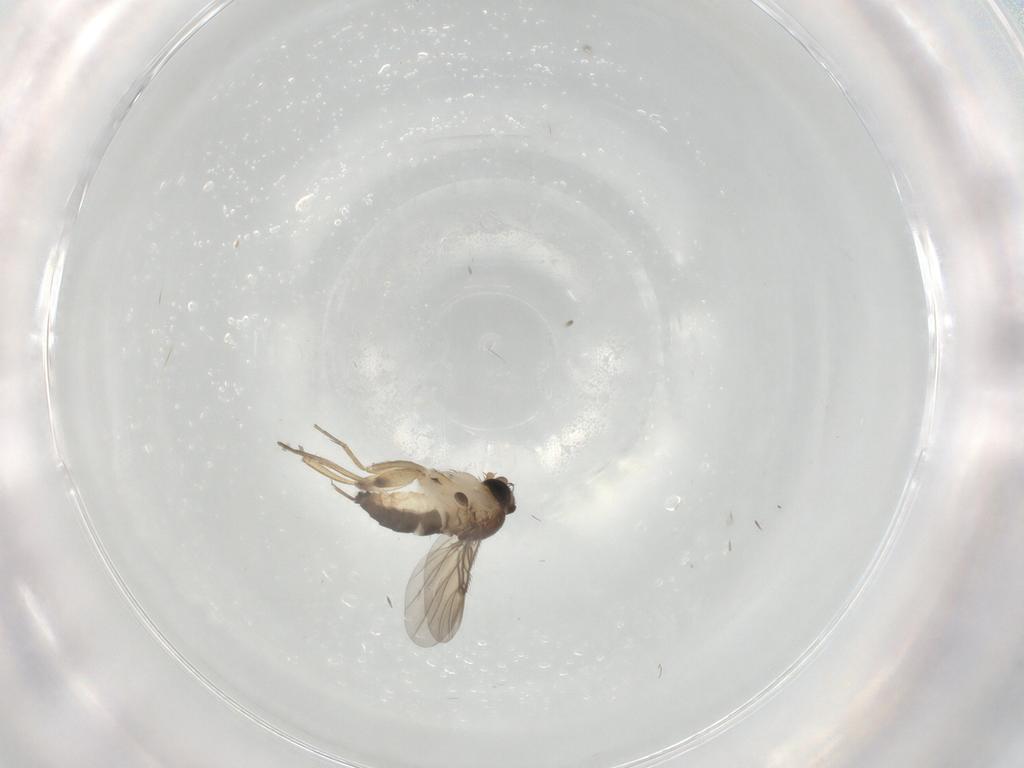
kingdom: Animalia
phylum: Arthropoda
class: Insecta
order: Diptera
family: Phoridae
